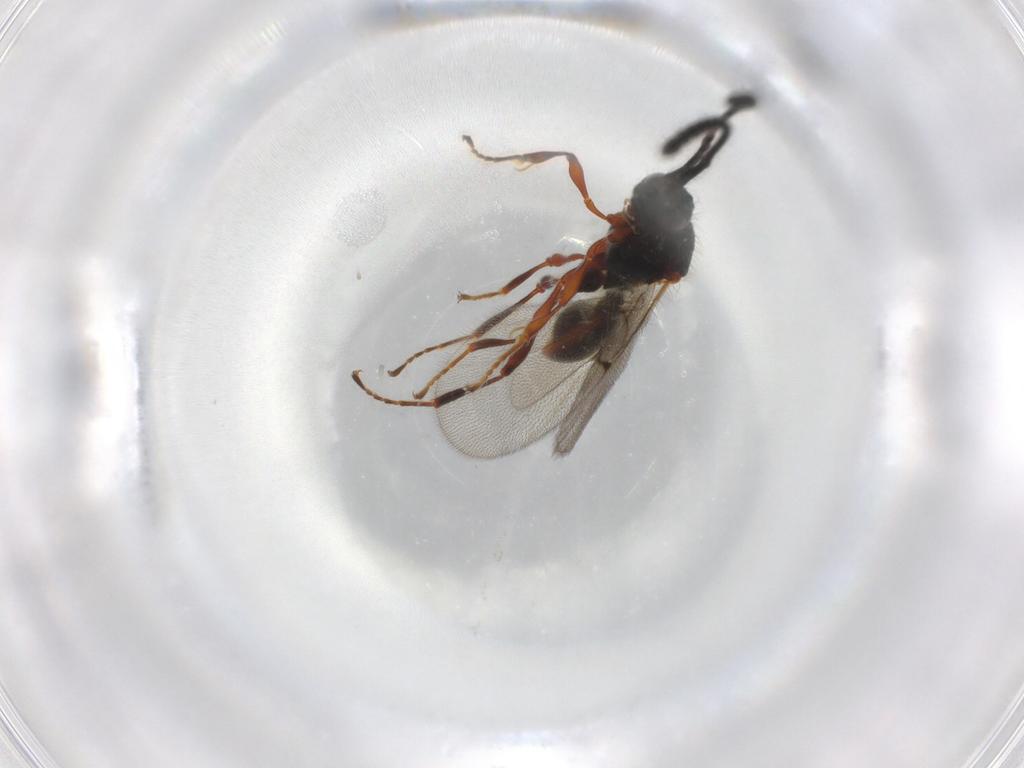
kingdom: Animalia
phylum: Arthropoda
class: Insecta
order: Hymenoptera
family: Diapriidae
